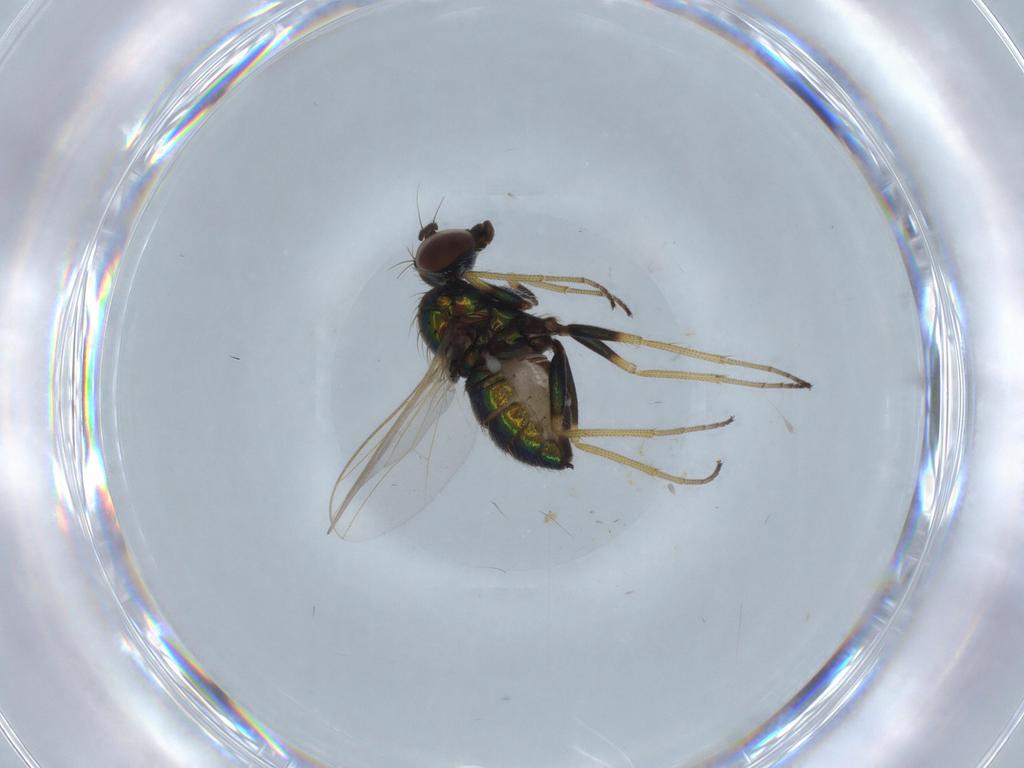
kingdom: Animalia
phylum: Arthropoda
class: Insecta
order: Diptera
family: Dolichopodidae
